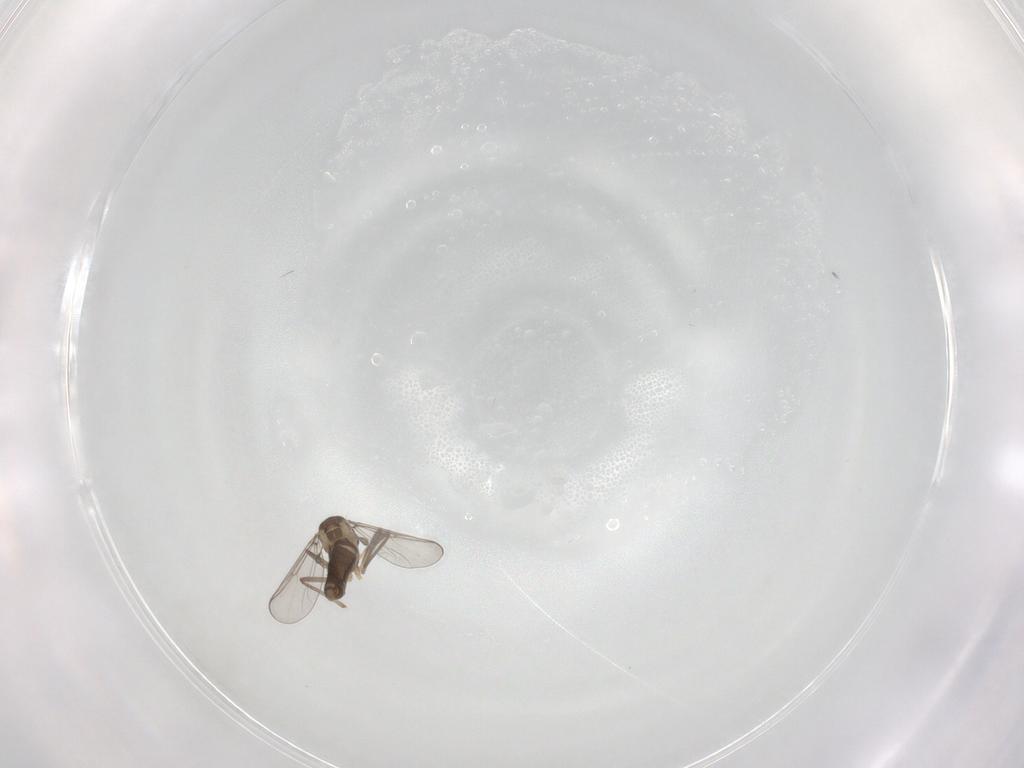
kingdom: Animalia
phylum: Arthropoda
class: Insecta
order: Diptera
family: Chironomidae
